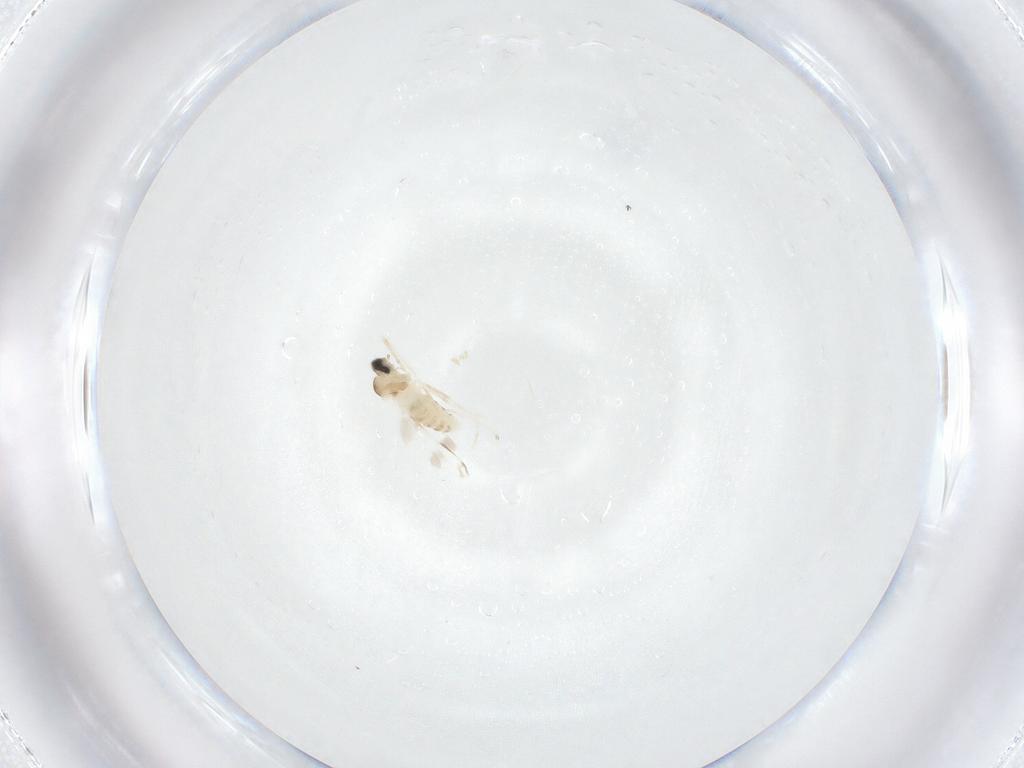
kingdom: Animalia
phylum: Arthropoda
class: Insecta
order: Diptera
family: Cecidomyiidae
